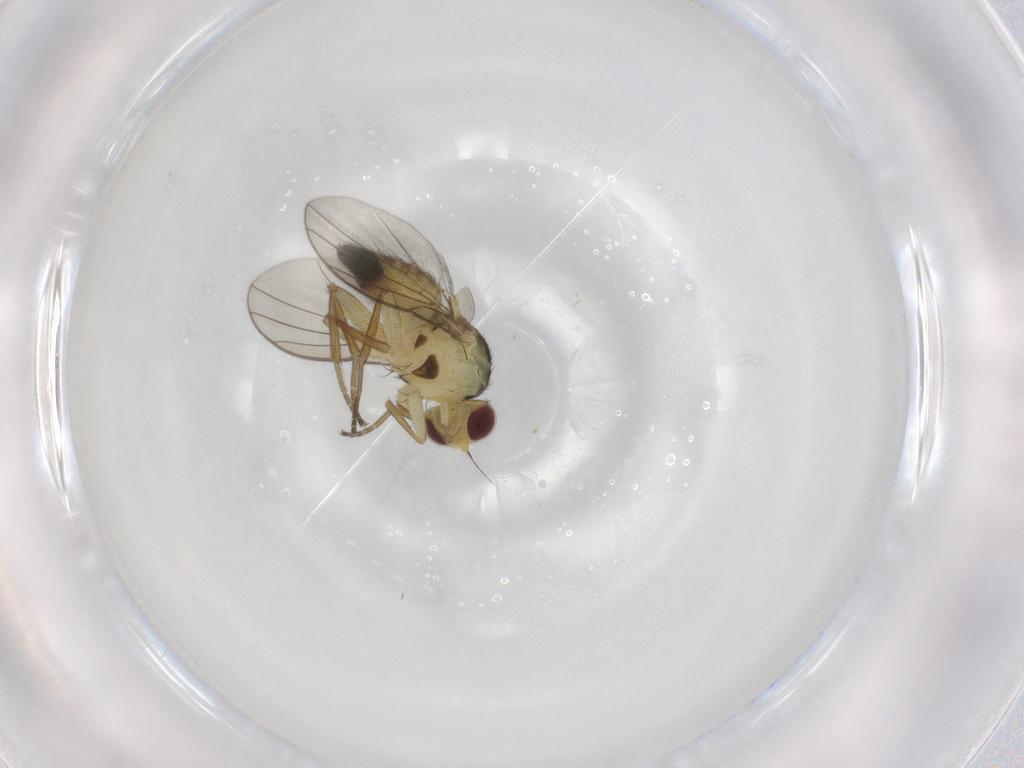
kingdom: Animalia
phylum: Arthropoda
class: Insecta
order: Diptera
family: Agromyzidae
